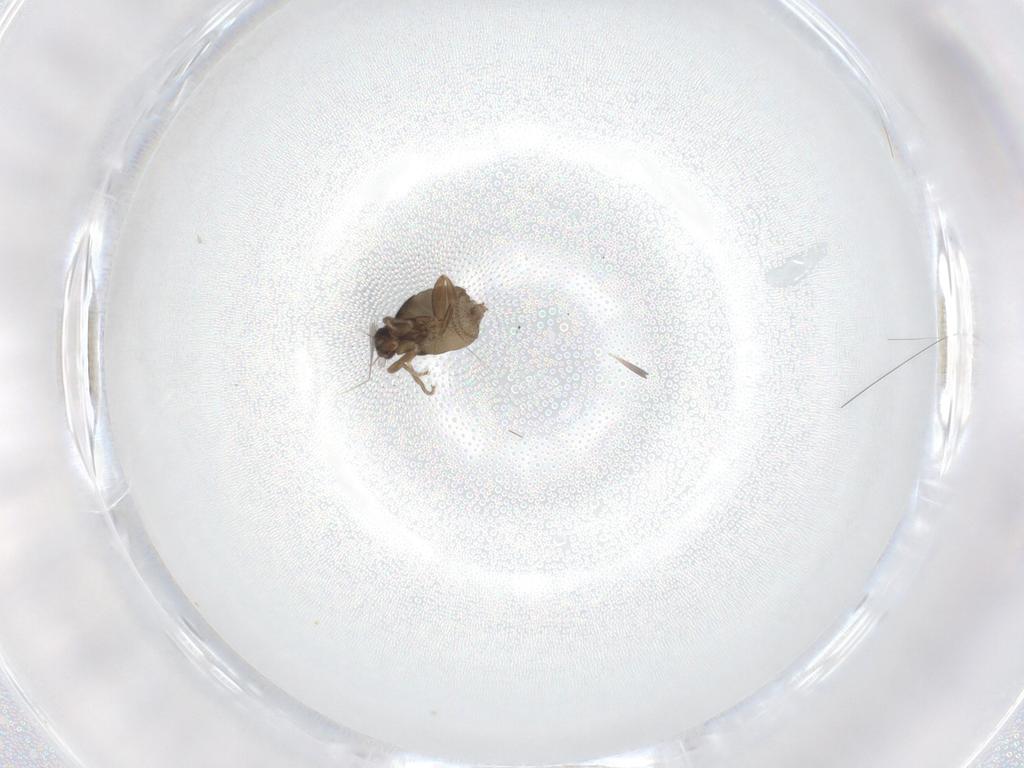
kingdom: Animalia
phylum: Arthropoda
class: Insecta
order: Diptera
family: Phoridae
